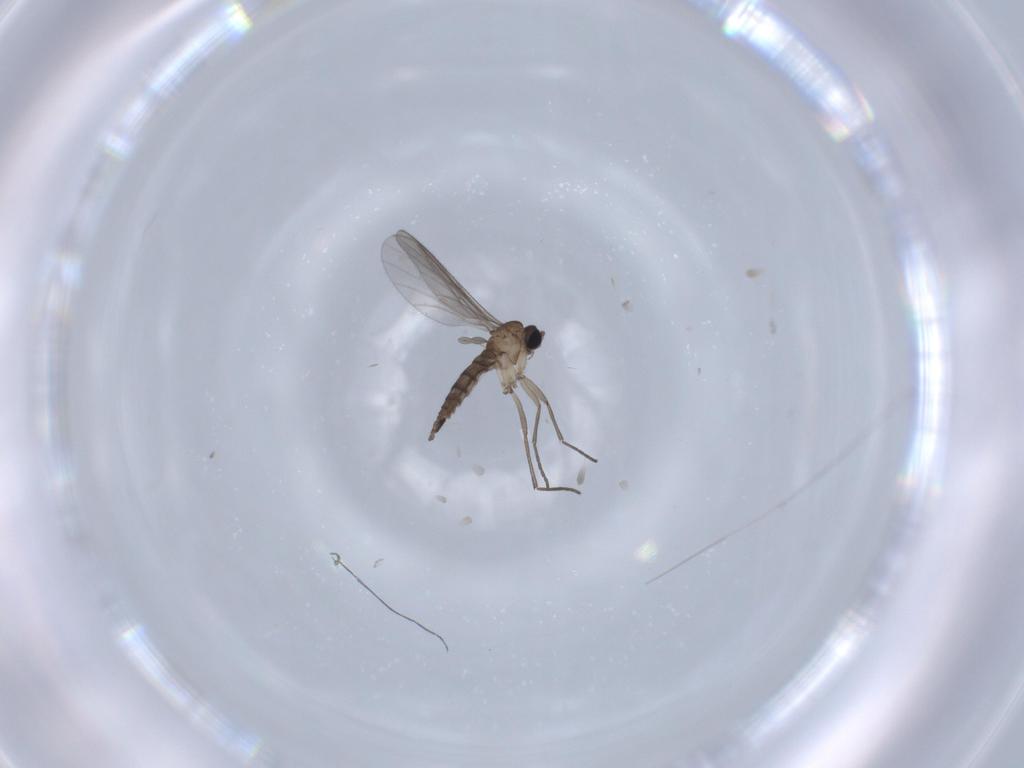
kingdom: Animalia
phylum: Arthropoda
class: Insecta
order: Diptera
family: Sciaridae
